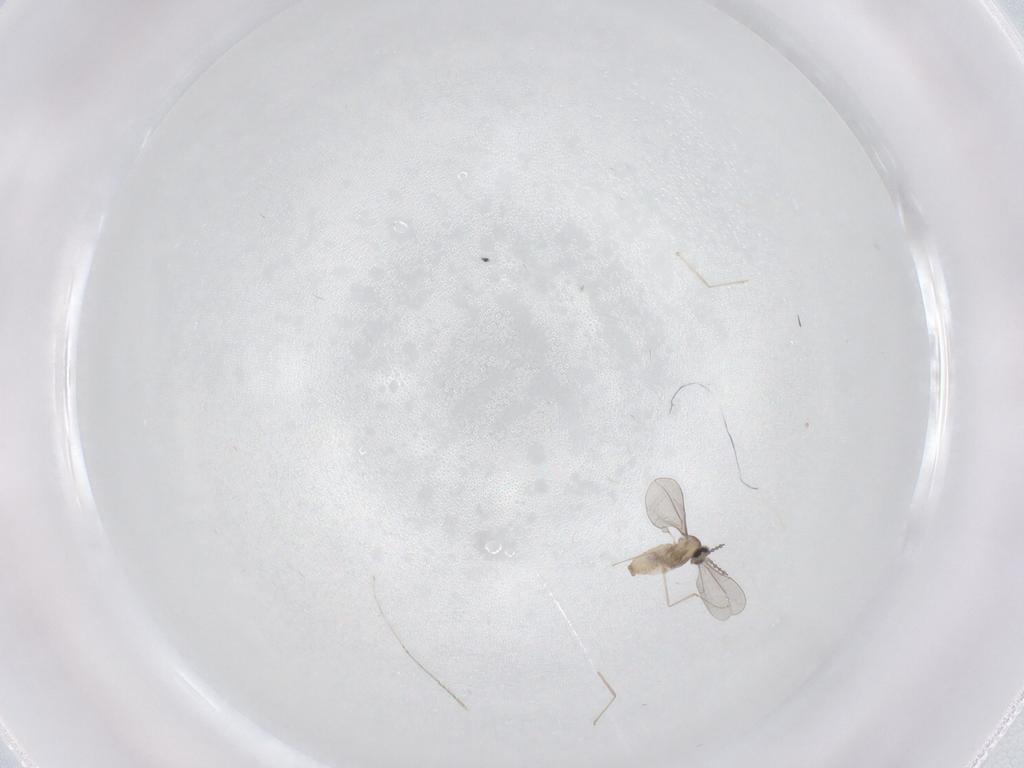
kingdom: Animalia
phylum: Arthropoda
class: Insecta
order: Diptera
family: Cecidomyiidae
